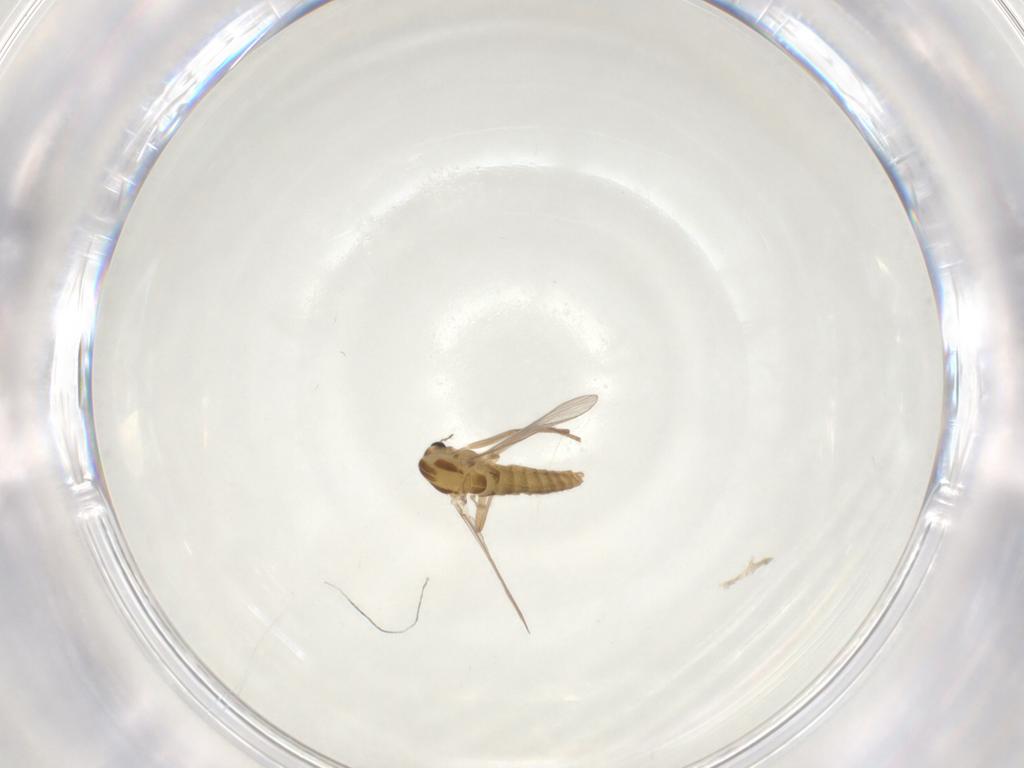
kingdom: Animalia
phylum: Arthropoda
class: Insecta
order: Diptera
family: Chironomidae
